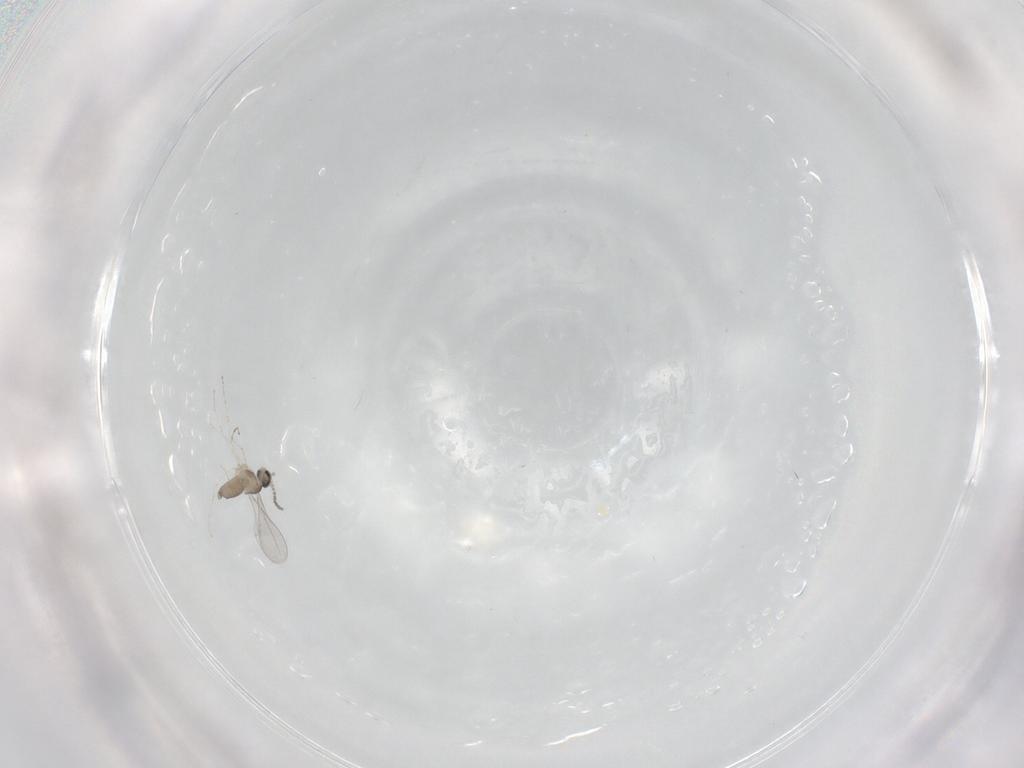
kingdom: Animalia
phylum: Arthropoda
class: Insecta
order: Diptera
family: Cecidomyiidae
